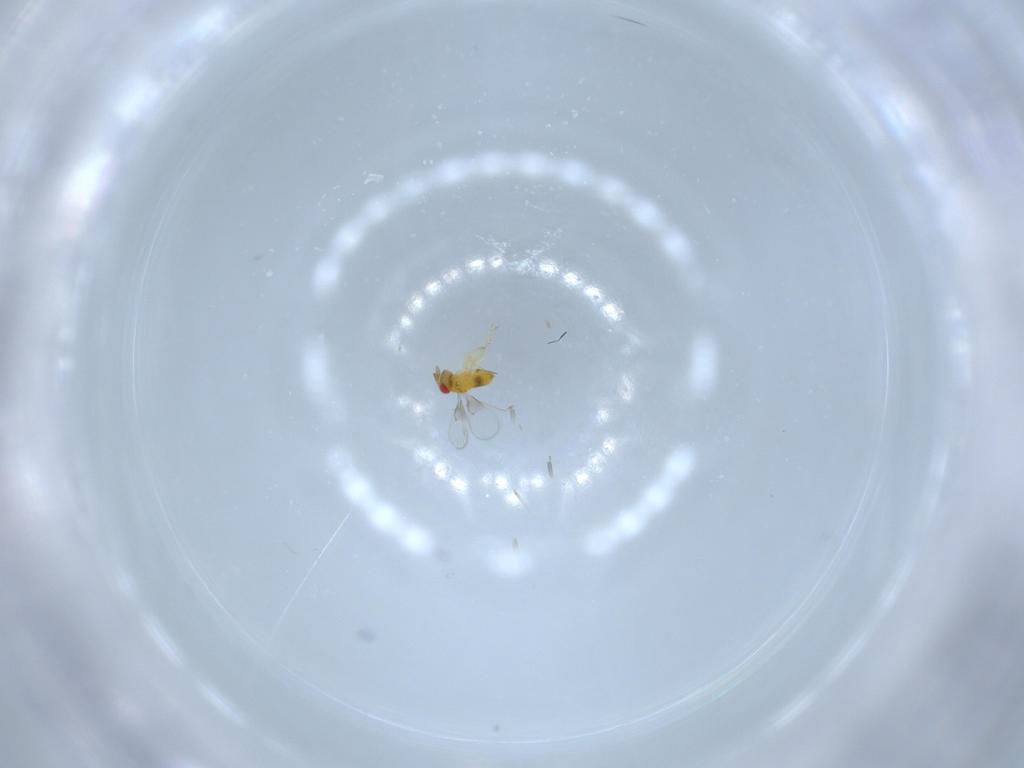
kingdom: Animalia
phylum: Arthropoda
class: Insecta
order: Hymenoptera
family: Trichogrammatidae
